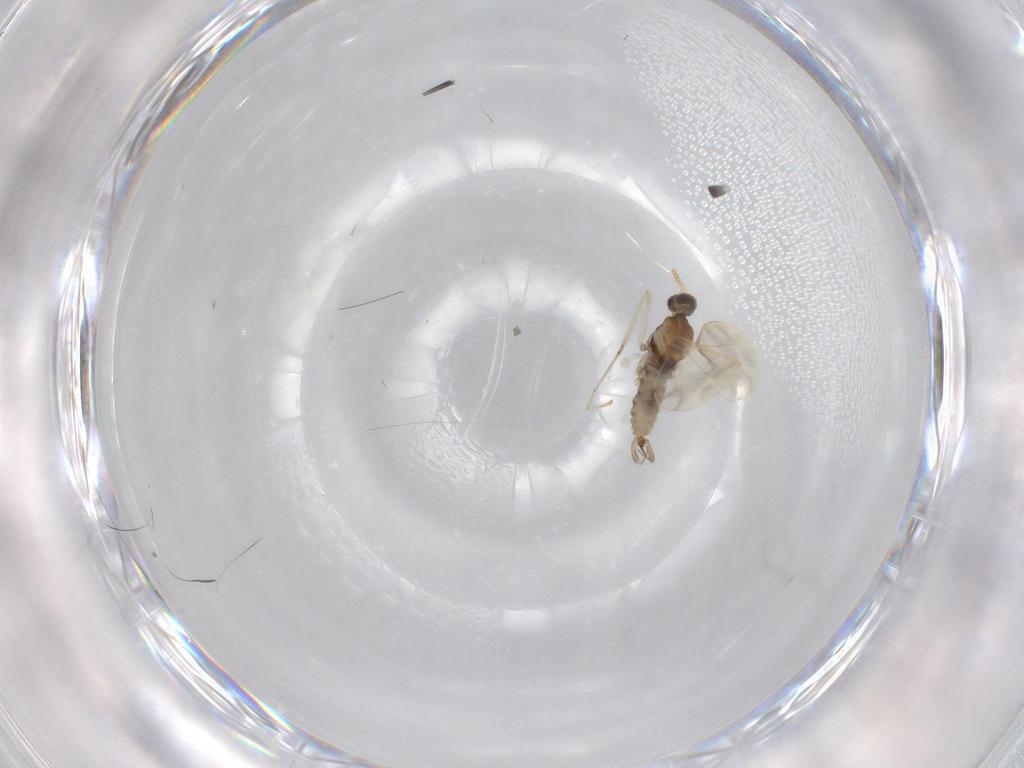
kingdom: Animalia
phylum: Arthropoda
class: Insecta
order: Diptera
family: Cecidomyiidae
